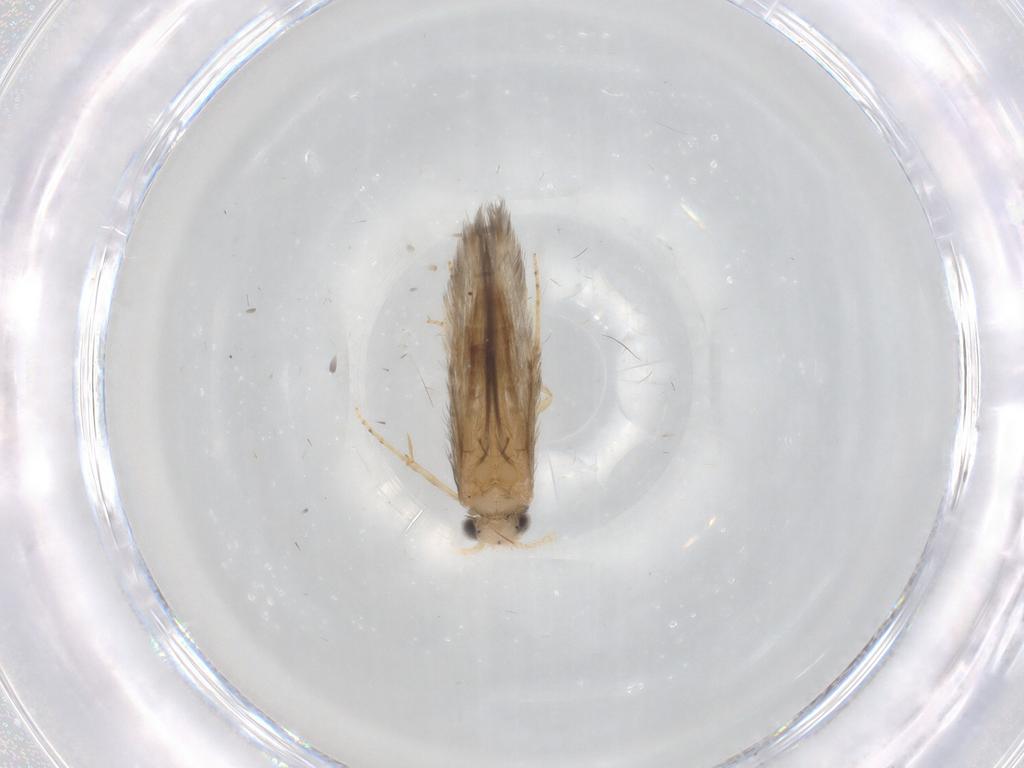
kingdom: Animalia
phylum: Arthropoda
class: Insecta
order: Trichoptera
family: Hydroptilidae
